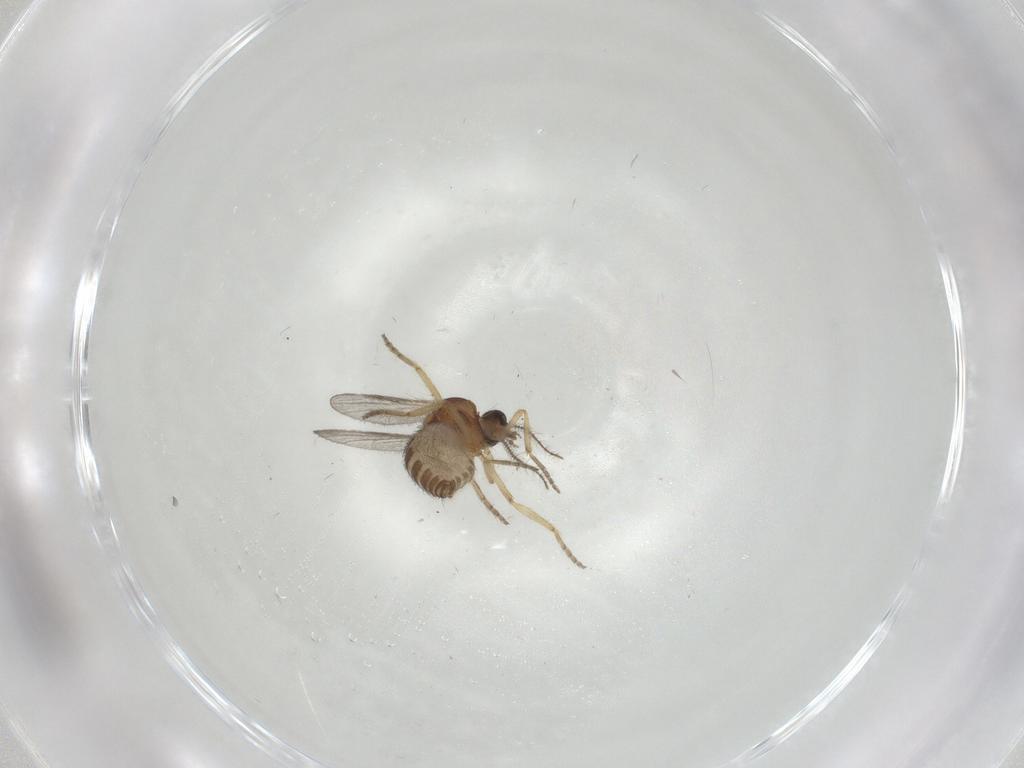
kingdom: Animalia
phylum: Arthropoda
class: Insecta
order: Diptera
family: Ceratopogonidae
